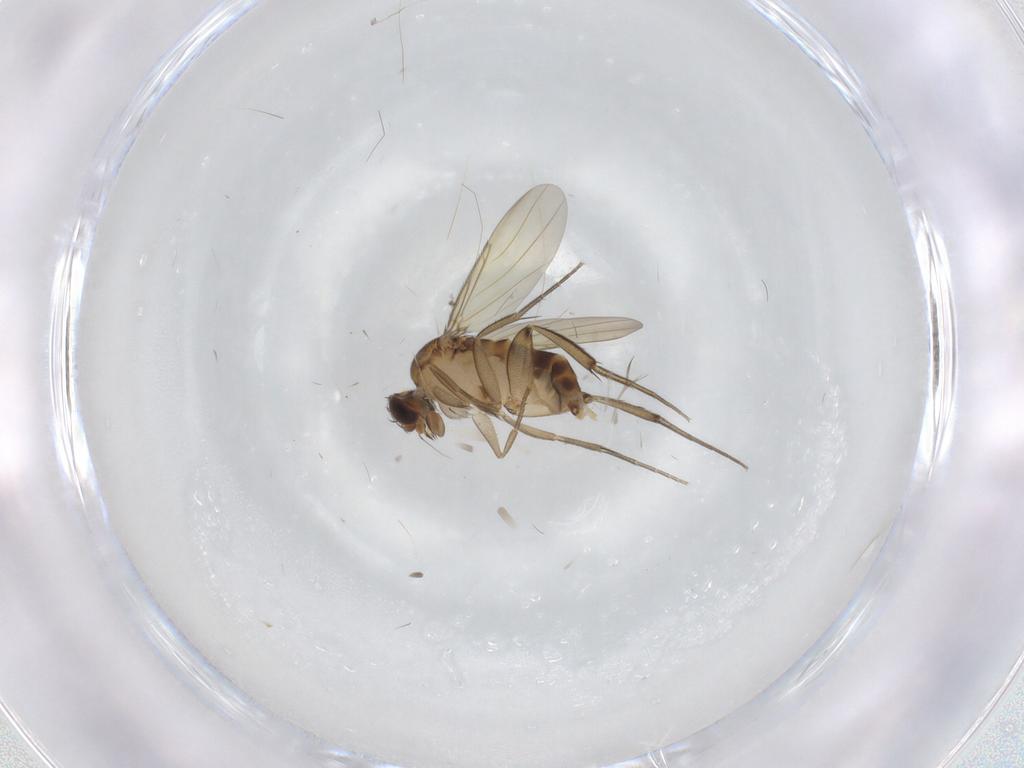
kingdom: Animalia
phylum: Arthropoda
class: Insecta
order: Diptera
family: Phoridae
